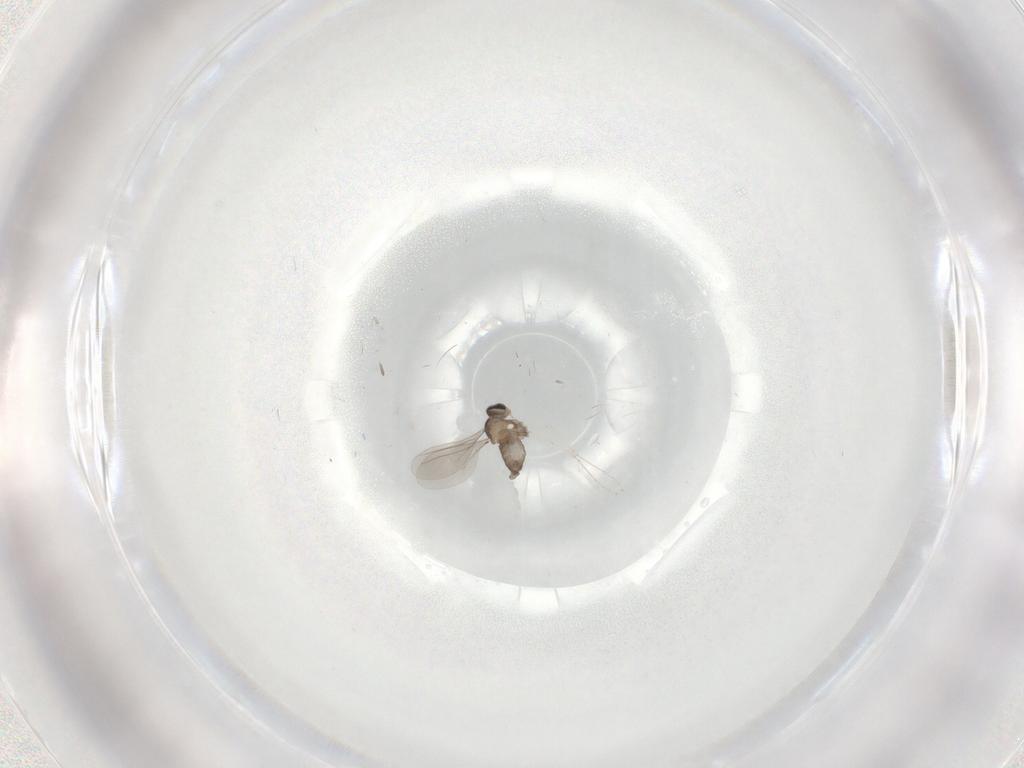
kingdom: Animalia
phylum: Arthropoda
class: Insecta
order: Diptera
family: Cecidomyiidae
